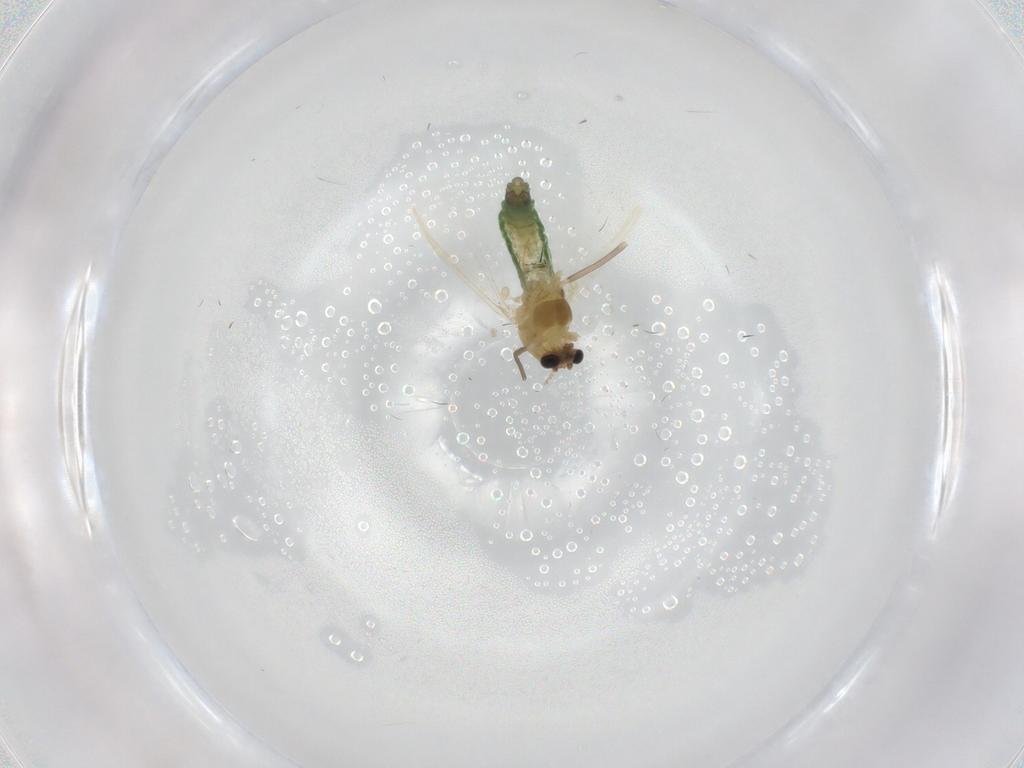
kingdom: Animalia
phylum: Arthropoda
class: Insecta
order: Diptera
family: Sciaridae
